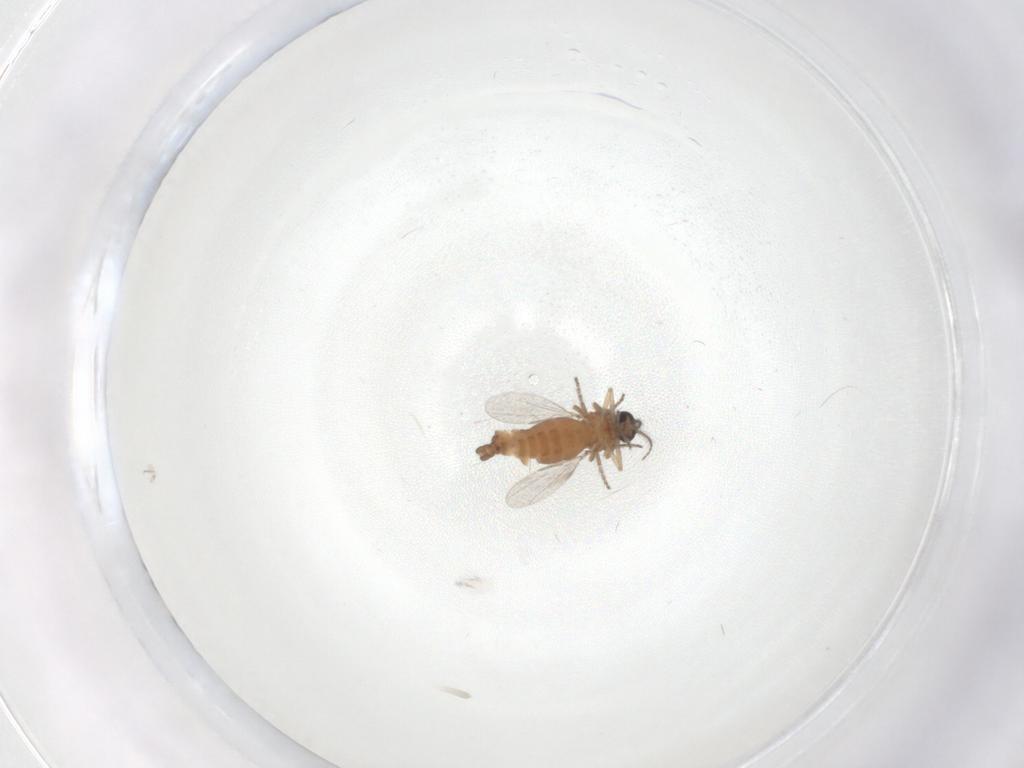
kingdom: Animalia
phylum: Arthropoda
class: Insecta
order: Diptera
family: Ceratopogonidae
